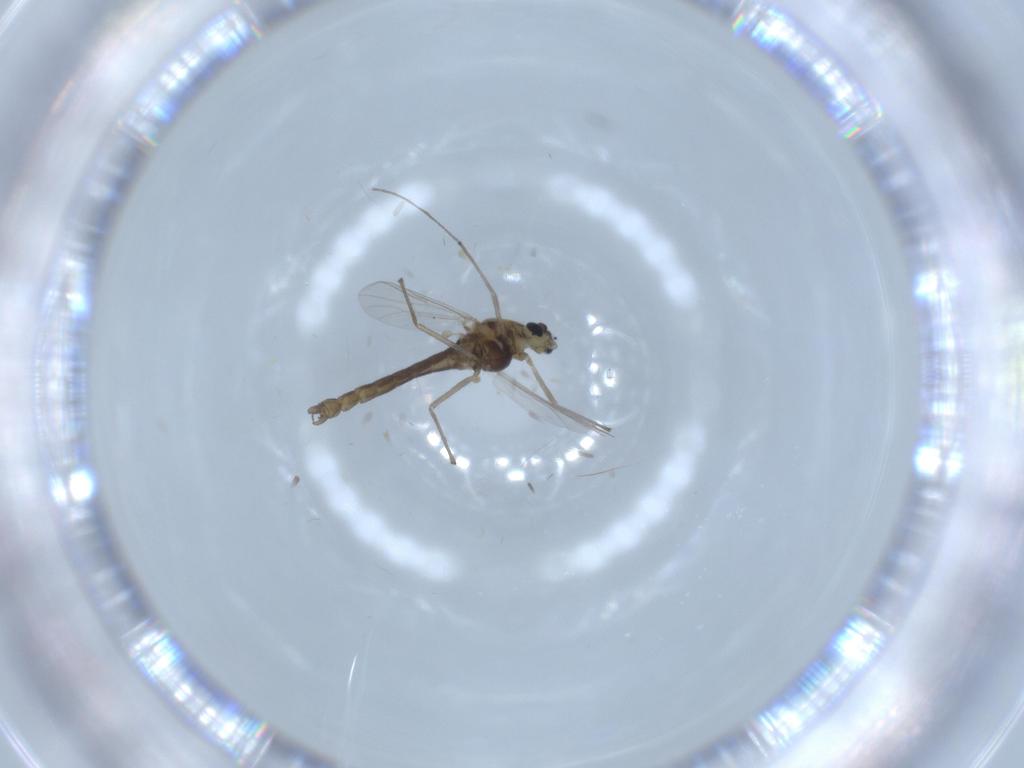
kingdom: Animalia
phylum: Arthropoda
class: Insecta
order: Diptera
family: Chironomidae
